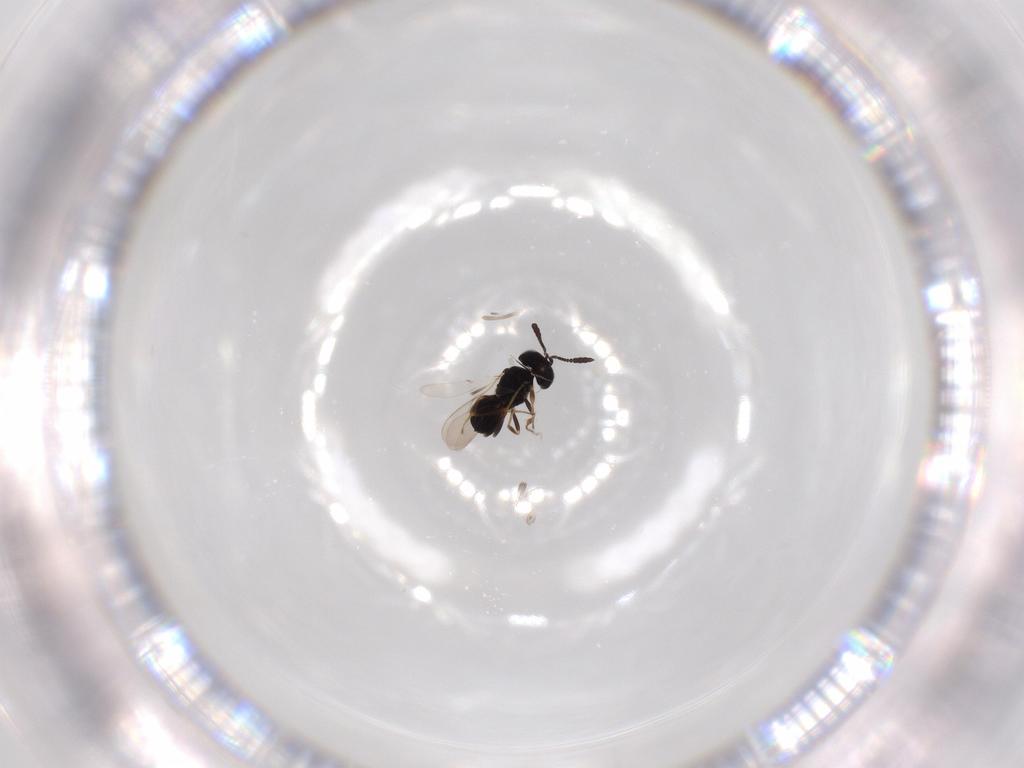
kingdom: Animalia
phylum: Arthropoda
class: Insecta
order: Hymenoptera
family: Scelionidae
